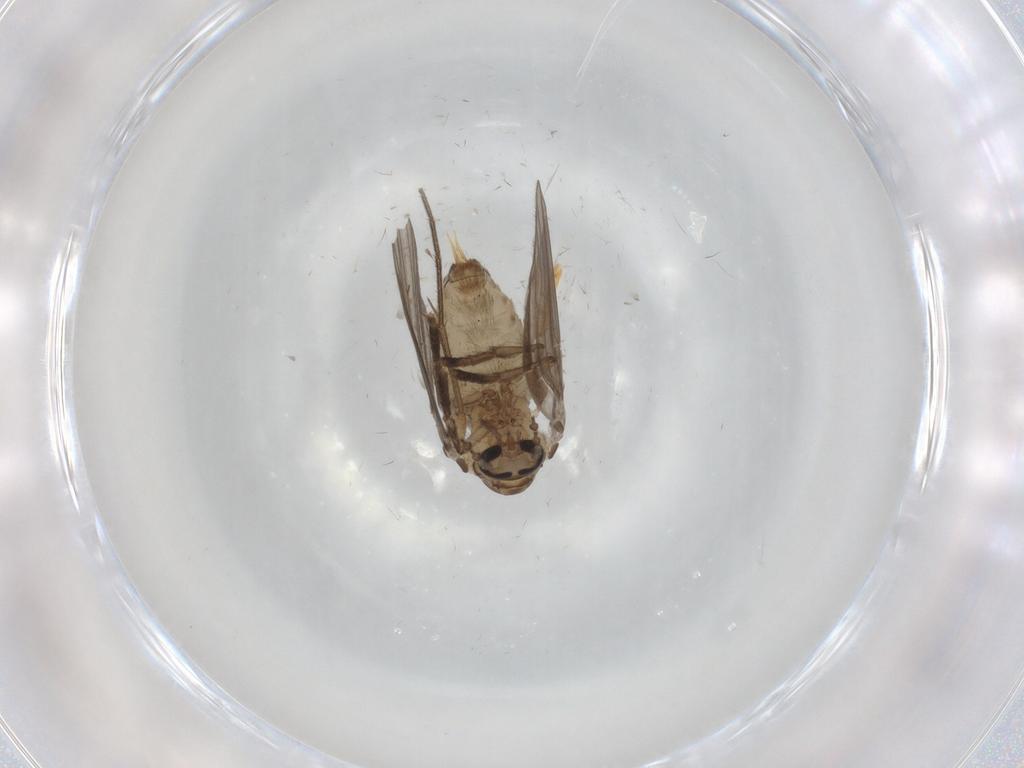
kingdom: Animalia
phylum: Arthropoda
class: Insecta
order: Diptera
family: Psychodidae
